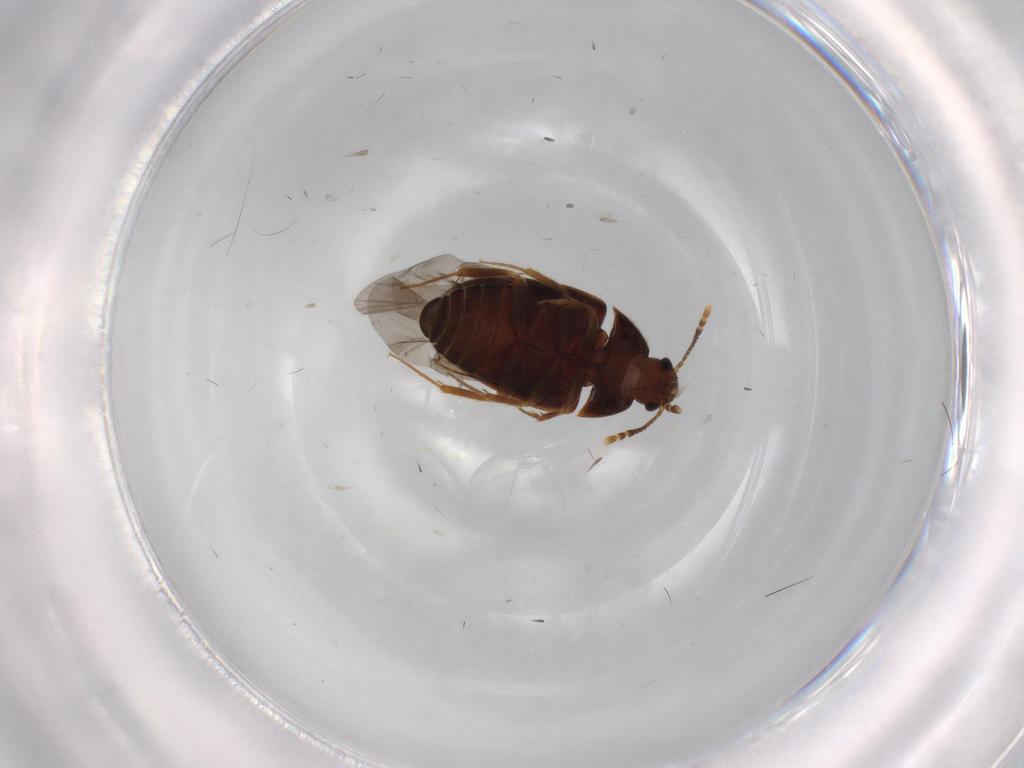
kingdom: Animalia
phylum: Arthropoda
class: Insecta
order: Coleoptera
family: Mycetophagidae
